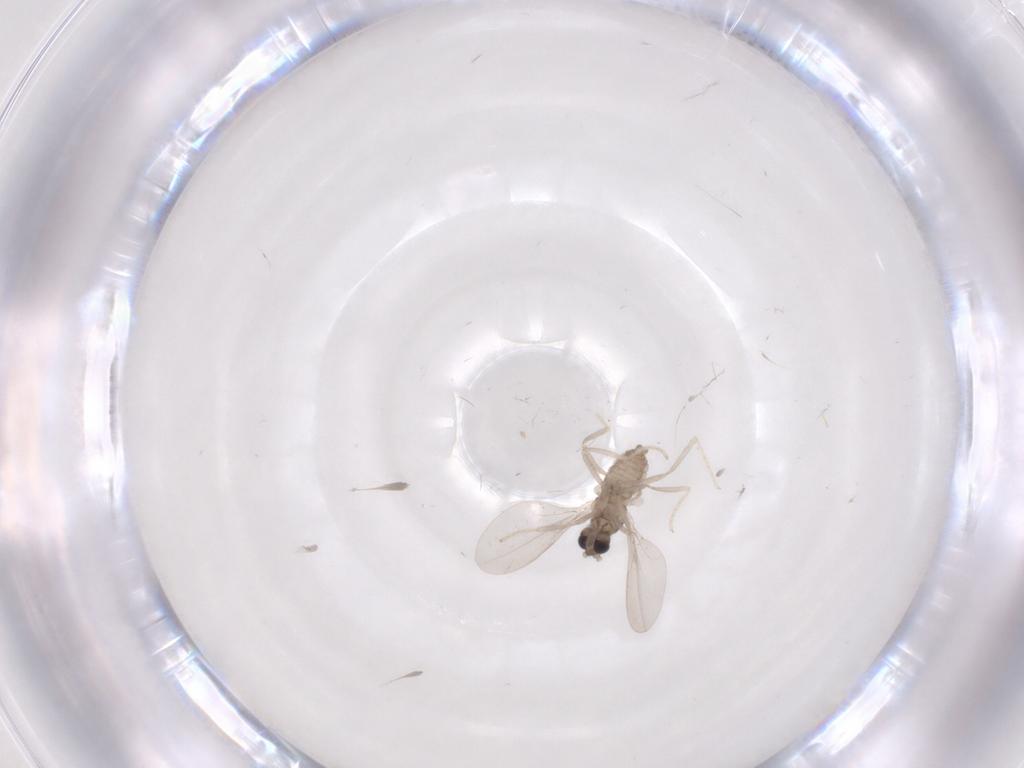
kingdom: Animalia
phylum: Arthropoda
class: Insecta
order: Diptera
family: Cecidomyiidae
